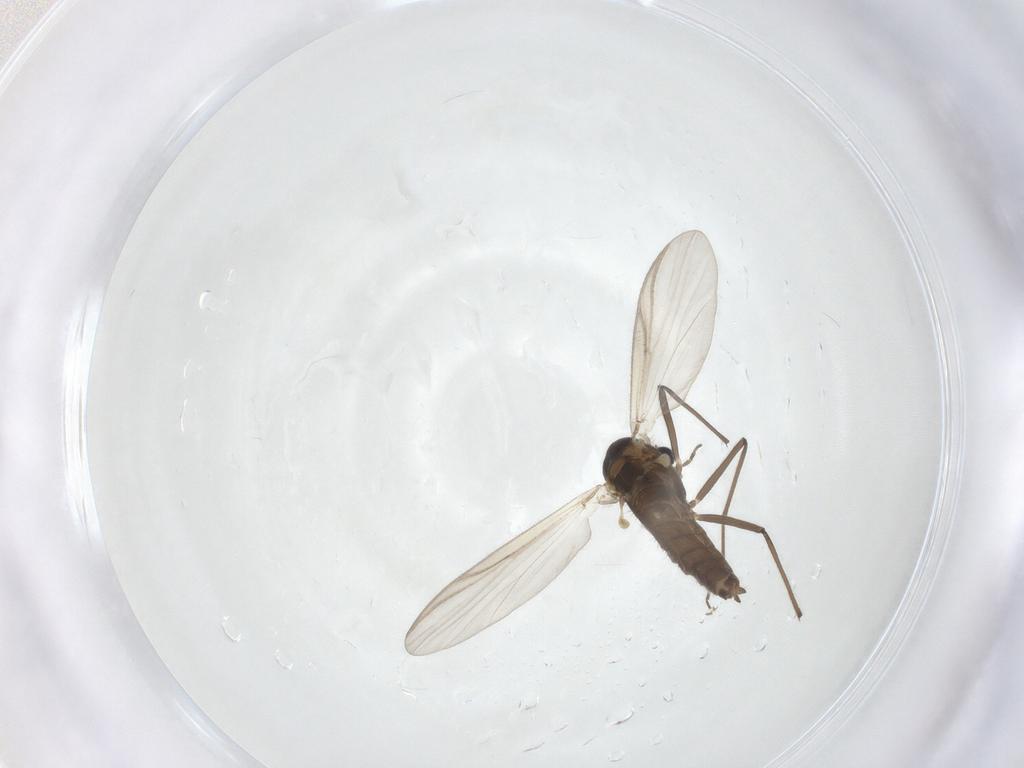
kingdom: Animalia
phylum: Arthropoda
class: Insecta
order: Diptera
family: Chironomidae
